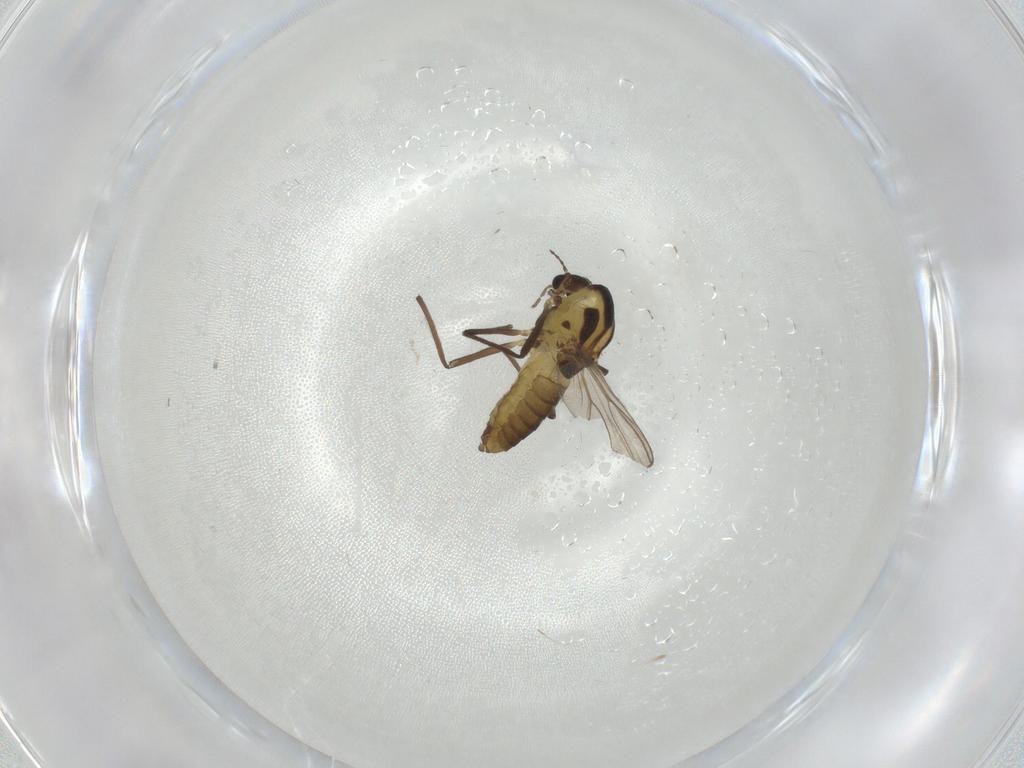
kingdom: Animalia
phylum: Arthropoda
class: Insecta
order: Diptera
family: Chironomidae
